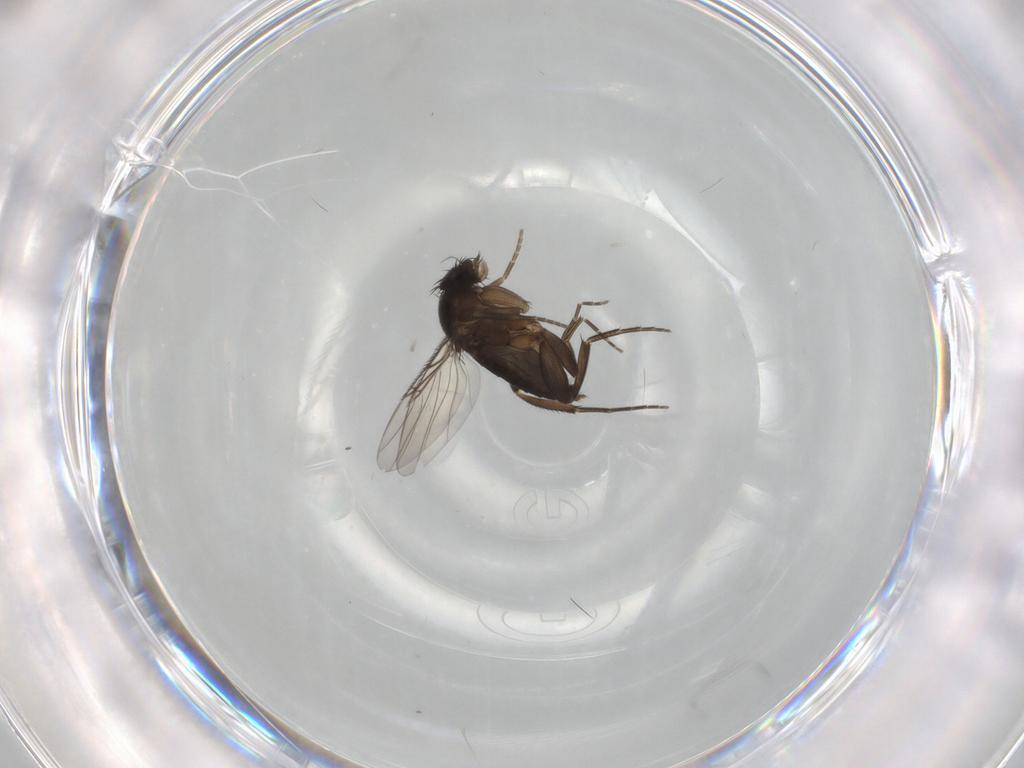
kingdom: Animalia
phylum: Arthropoda
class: Insecta
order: Diptera
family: Phoridae
